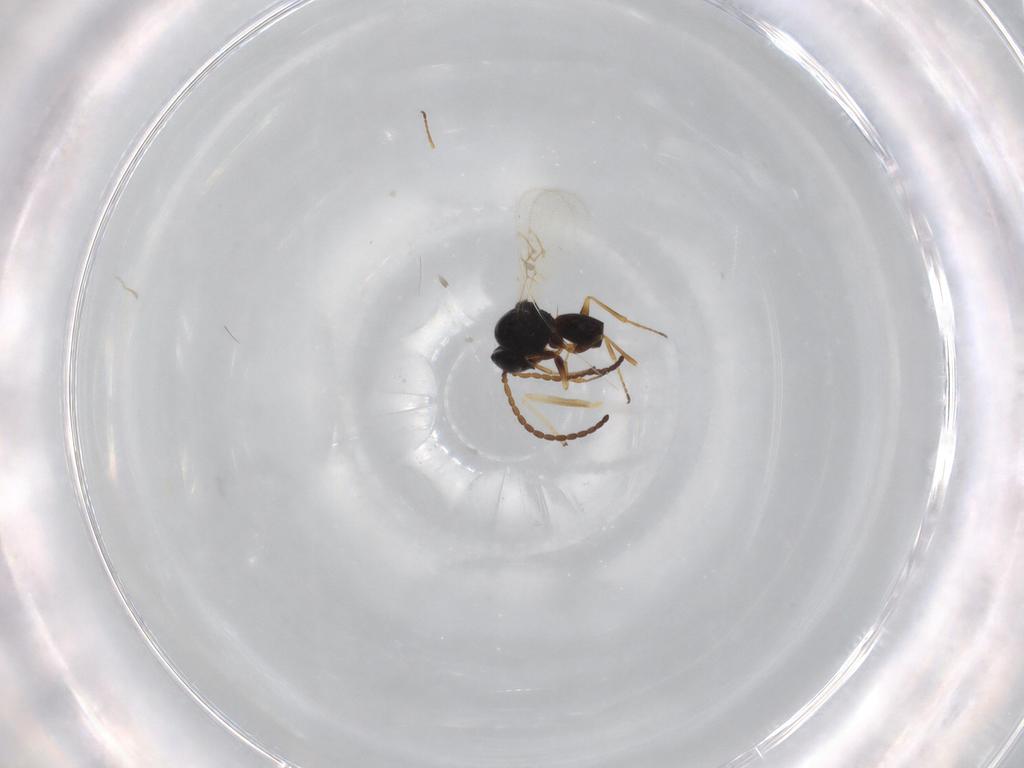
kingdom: Animalia
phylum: Arthropoda
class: Insecta
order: Hymenoptera
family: Figitidae
